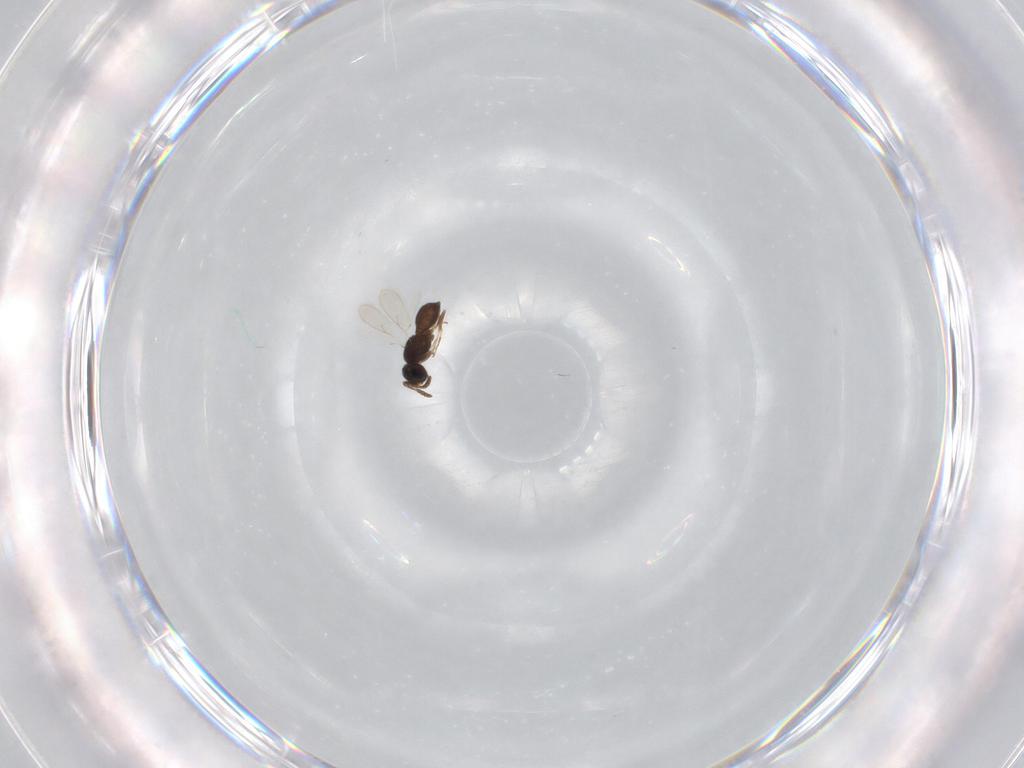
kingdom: Animalia
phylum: Arthropoda
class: Insecta
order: Hymenoptera
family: Scelionidae
